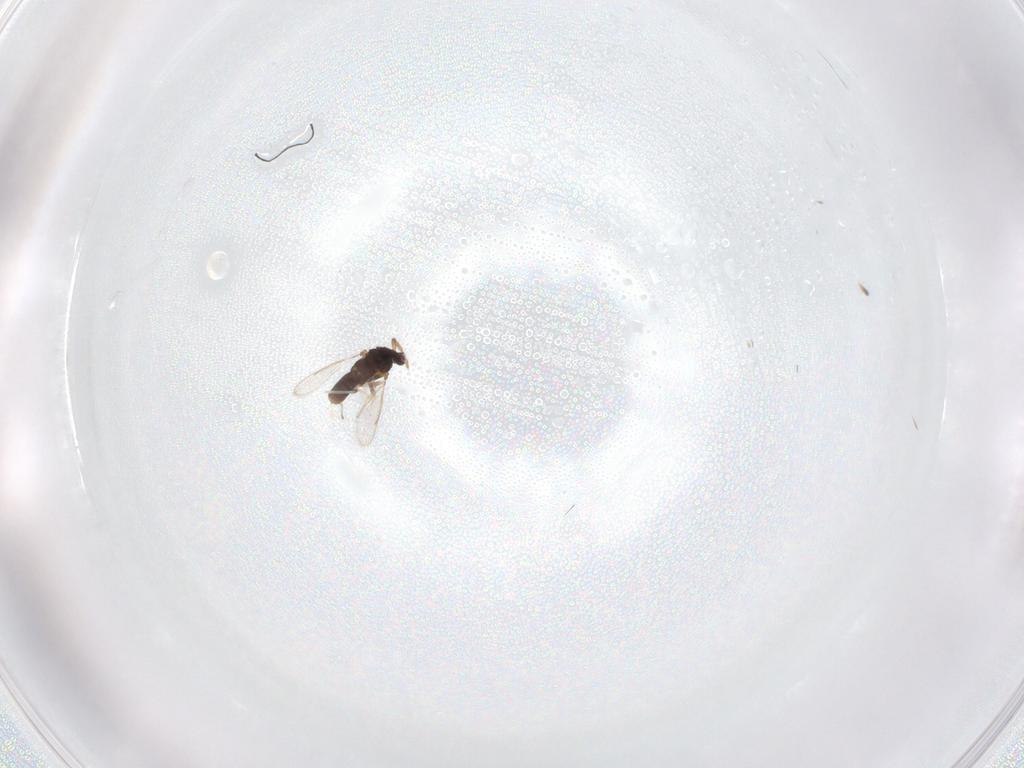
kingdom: Animalia
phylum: Arthropoda
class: Insecta
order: Hymenoptera
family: Eulophidae
